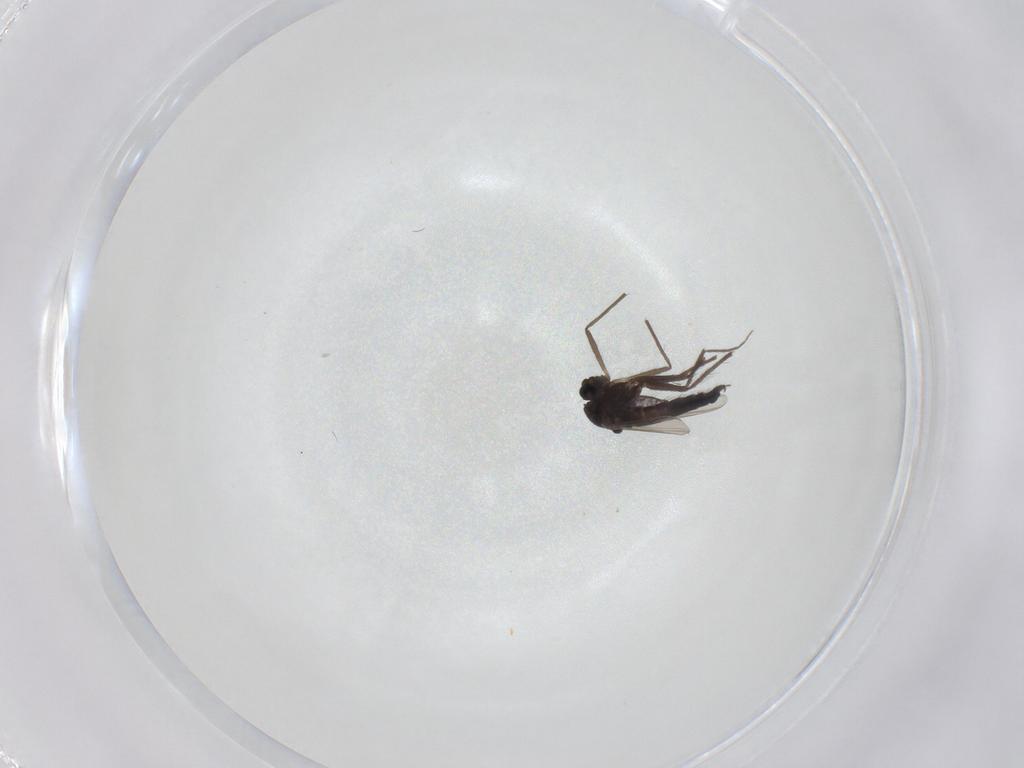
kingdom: Animalia
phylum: Arthropoda
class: Insecta
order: Diptera
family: Chironomidae
